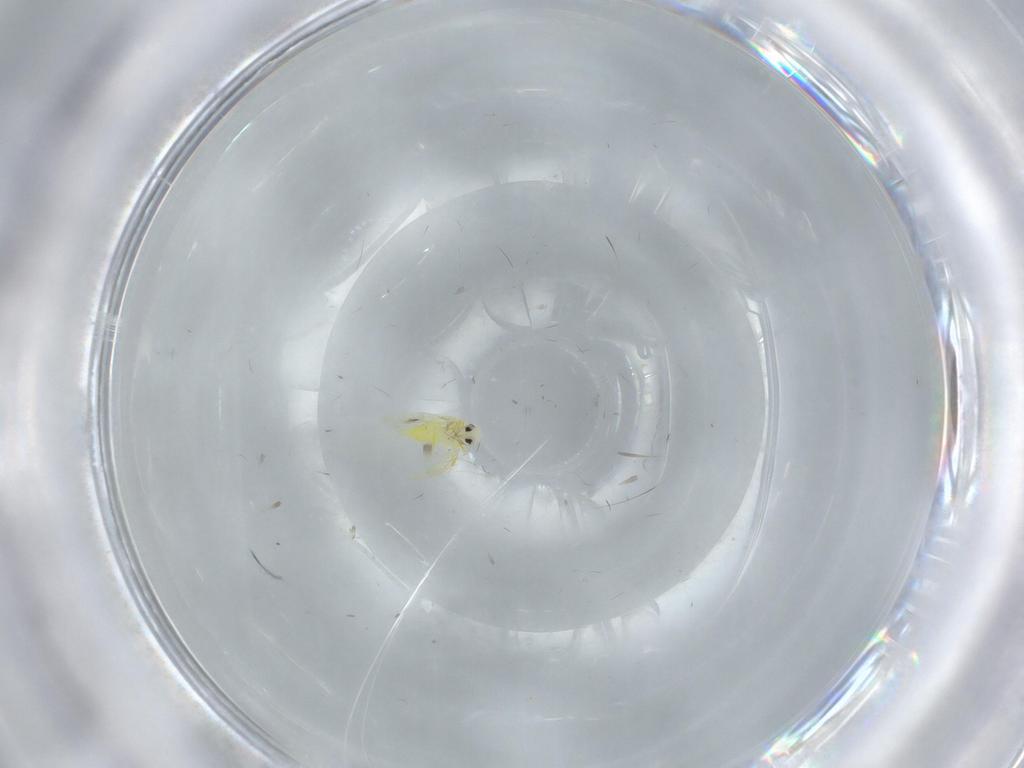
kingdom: Animalia
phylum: Arthropoda
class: Insecta
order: Hemiptera
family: Aleyrodidae
